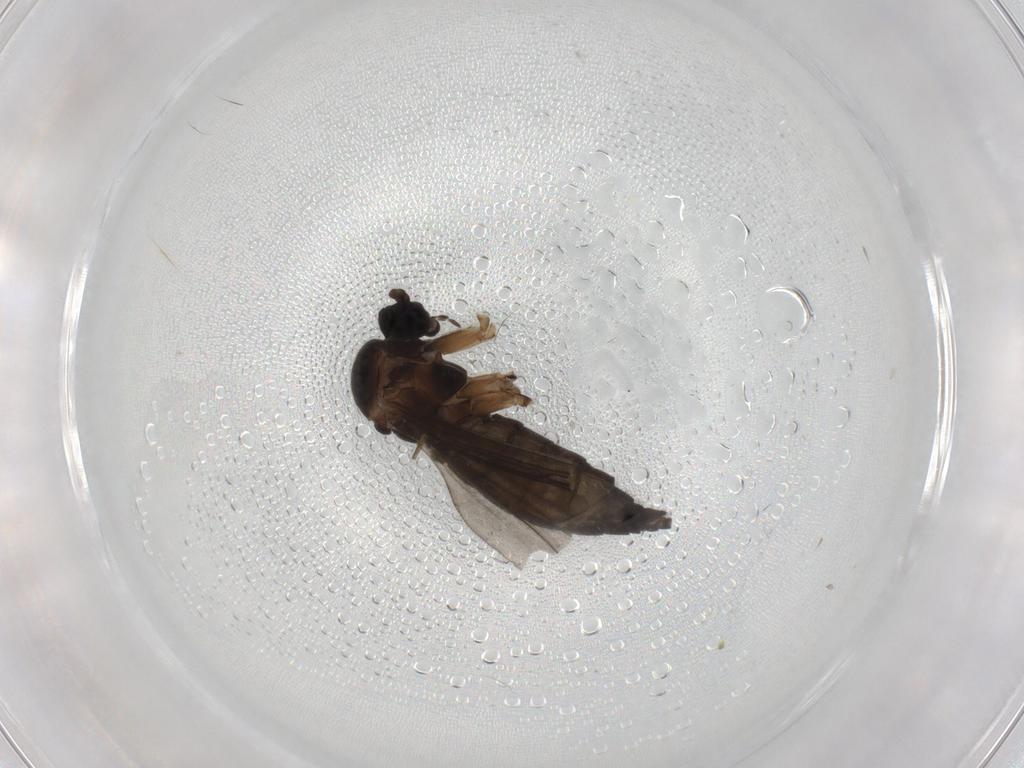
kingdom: Animalia
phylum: Arthropoda
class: Insecta
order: Diptera
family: Sciaridae
